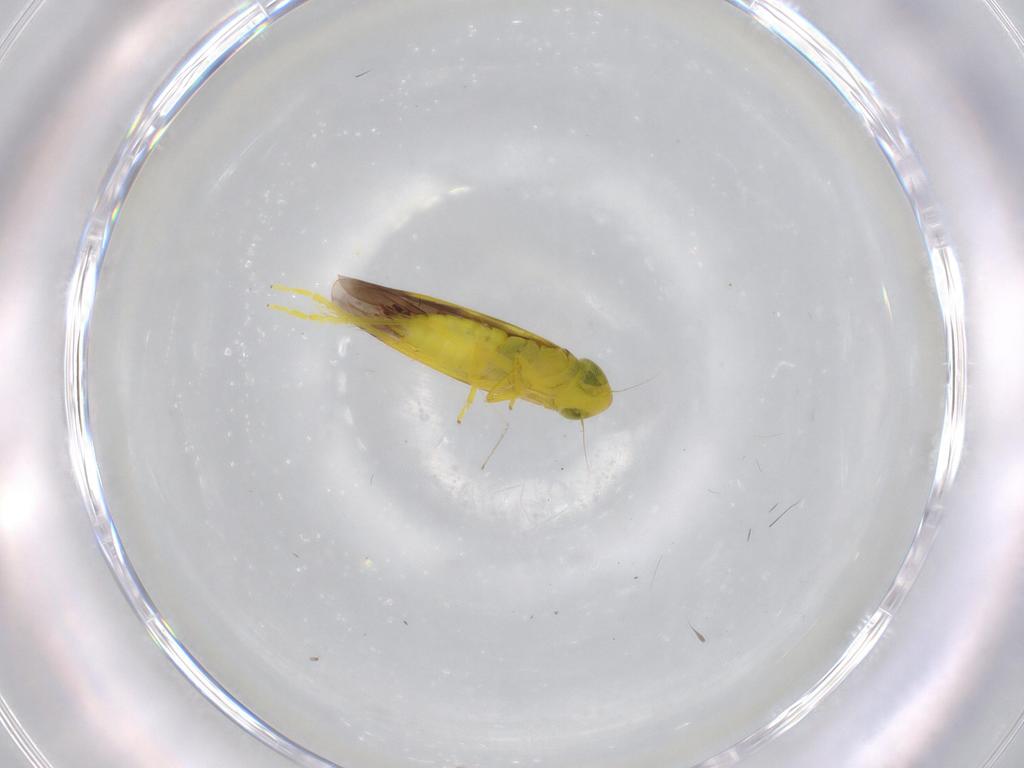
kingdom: Animalia
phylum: Arthropoda
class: Insecta
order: Hemiptera
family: Cicadellidae
